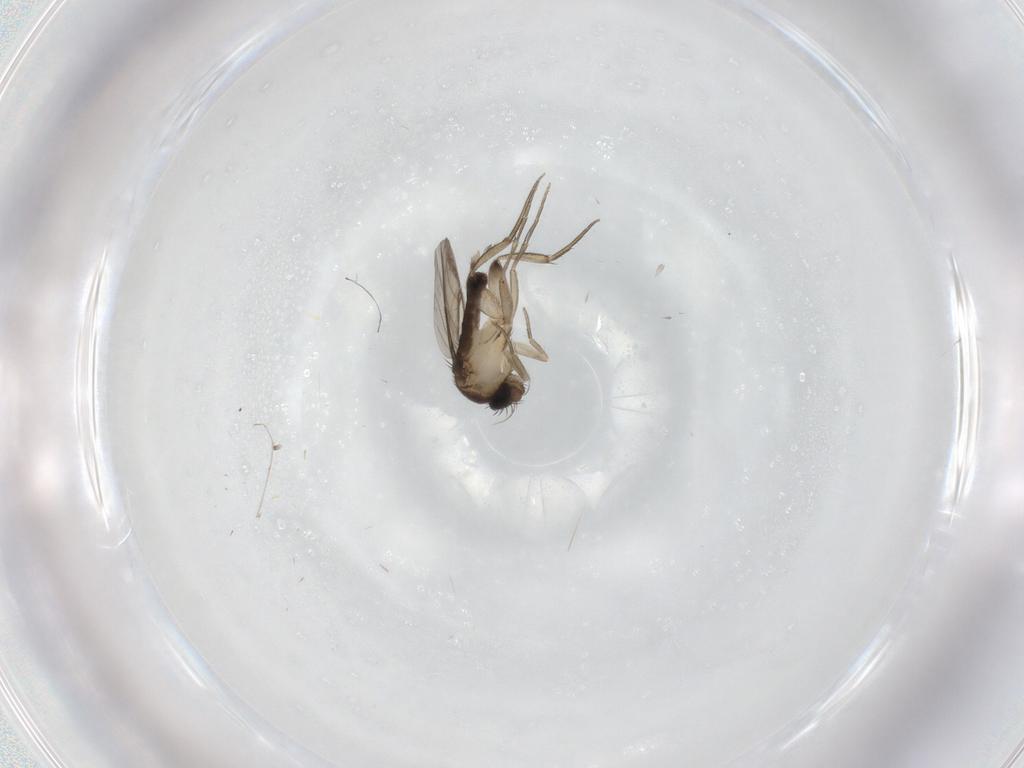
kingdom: Animalia
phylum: Arthropoda
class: Insecta
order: Diptera
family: Phoridae
